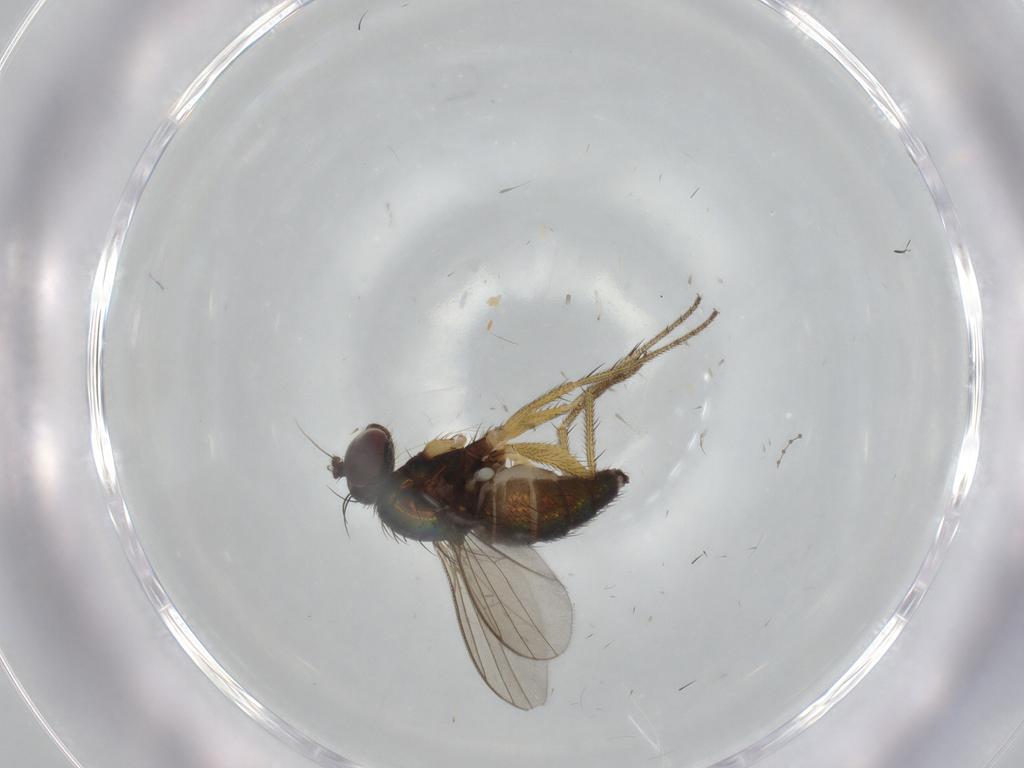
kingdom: Animalia
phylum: Arthropoda
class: Insecta
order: Diptera
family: Dolichopodidae
